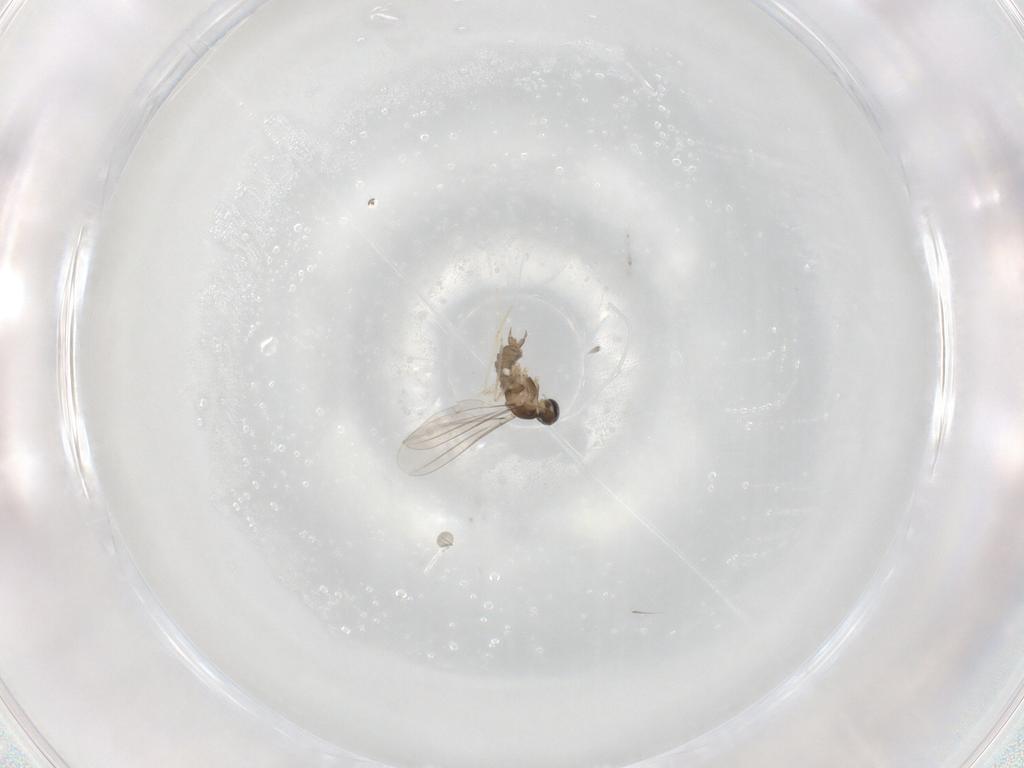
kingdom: Animalia
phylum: Arthropoda
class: Insecta
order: Diptera
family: Cecidomyiidae
